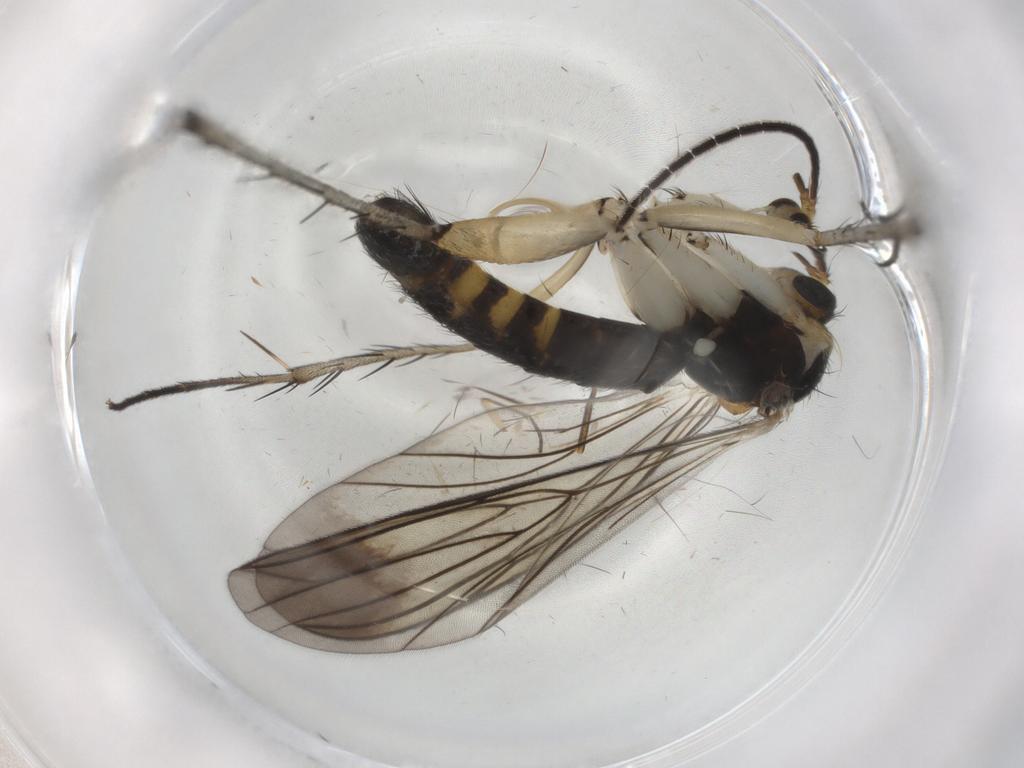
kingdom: Animalia
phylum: Arthropoda
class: Insecta
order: Diptera
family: Mycetophilidae
